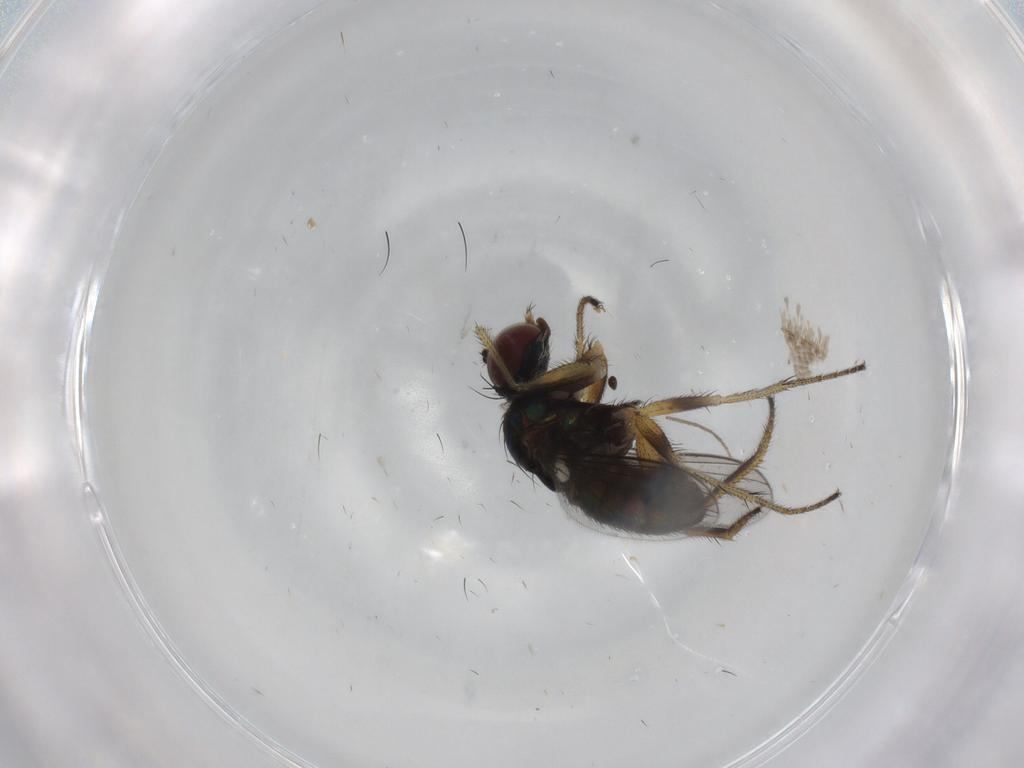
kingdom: Animalia
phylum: Arthropoda
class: Insecta
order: Diptera
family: Dolichopodidae
